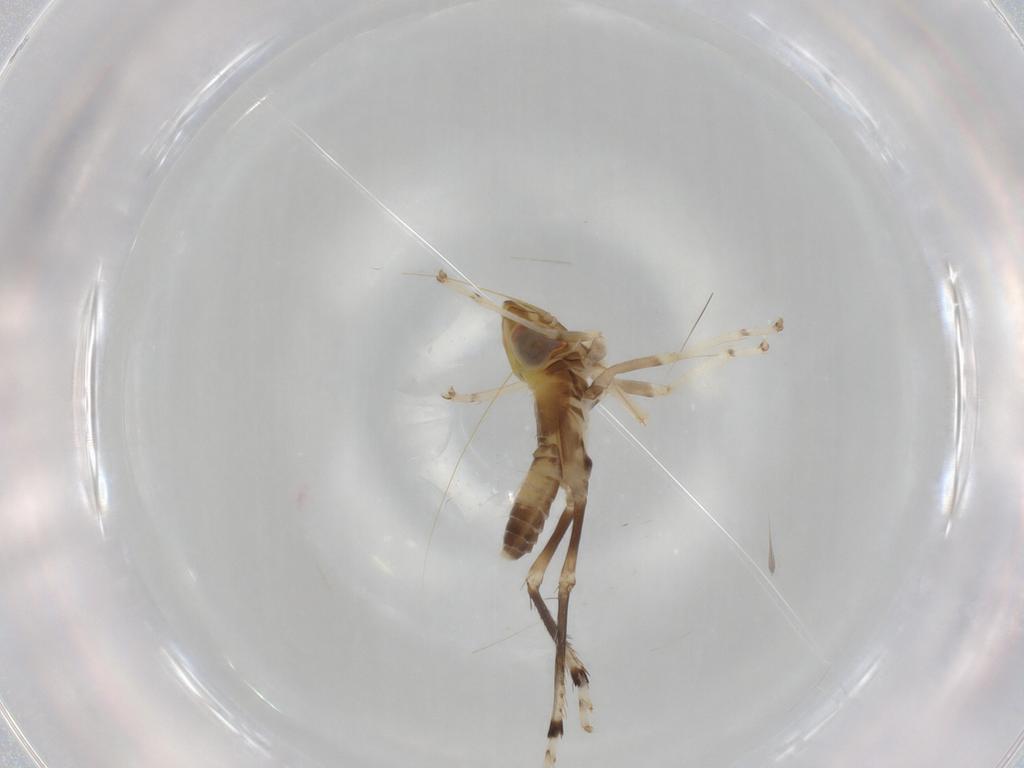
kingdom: Animalia
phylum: Arthropoda
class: Insecta
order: Hemiptera
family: Cicadellidae
